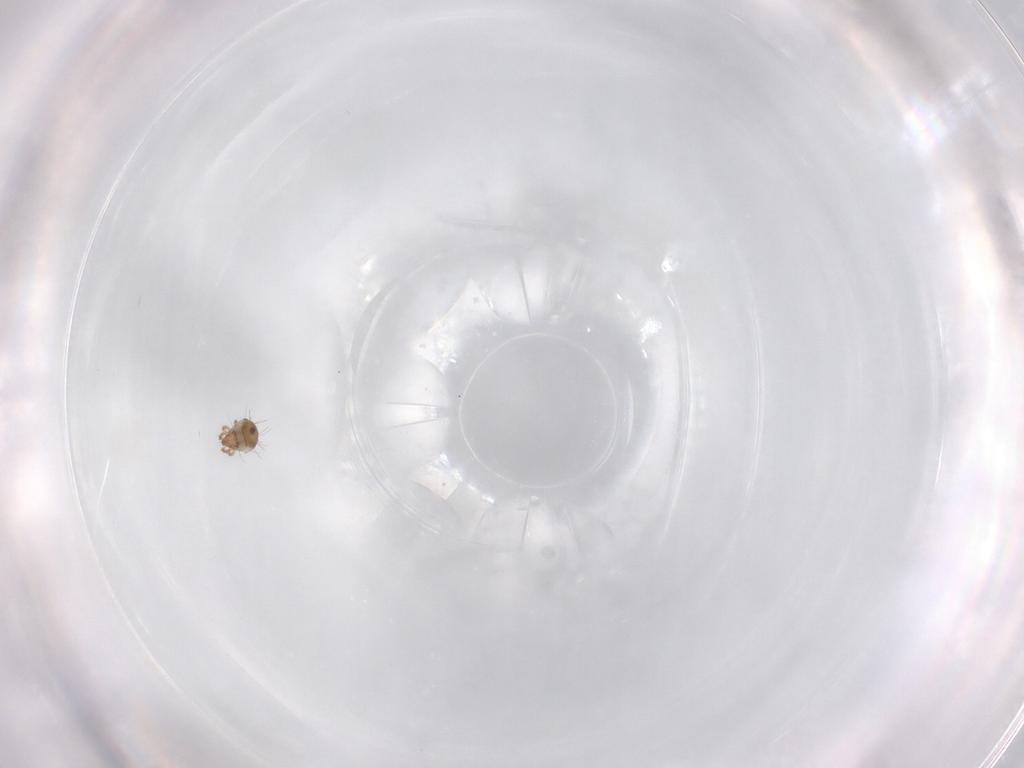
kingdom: Animalia
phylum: Arthropoda
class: Arachnida
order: Sarcoptiformes
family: Humerobatidae
